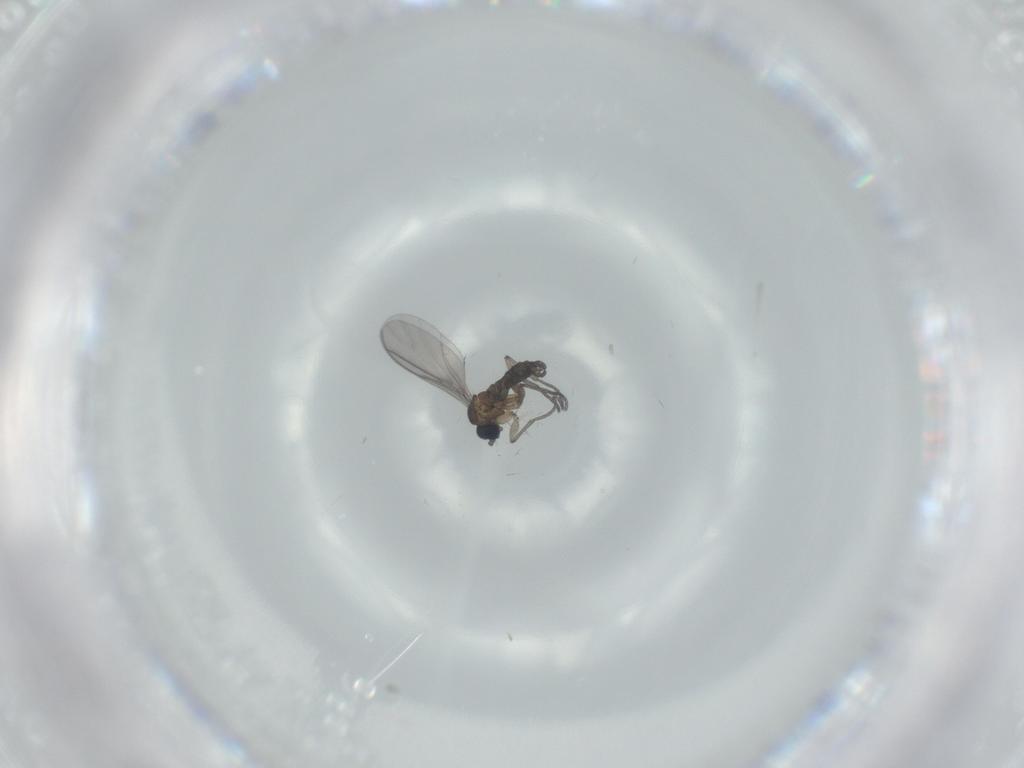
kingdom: Animalia
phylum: Arthropoda
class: Insecta
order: Diptera
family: Sciaridae
